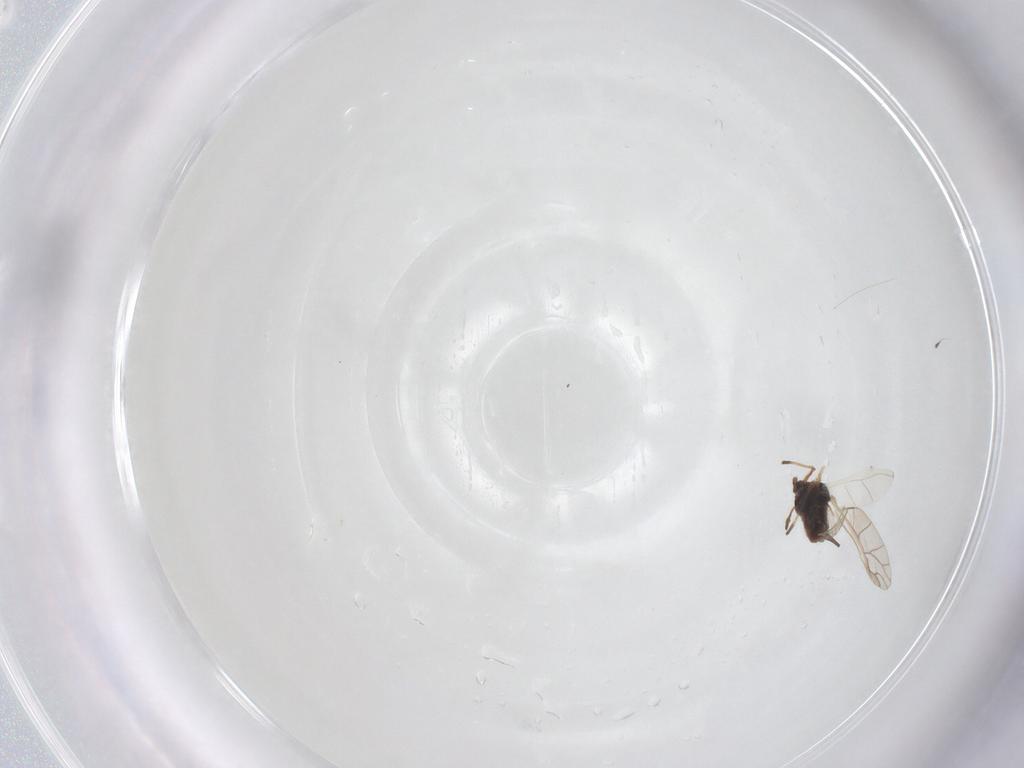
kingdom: Animalia
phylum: Arthropoda
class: Insecta
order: Hemiptera
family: Aphididae
